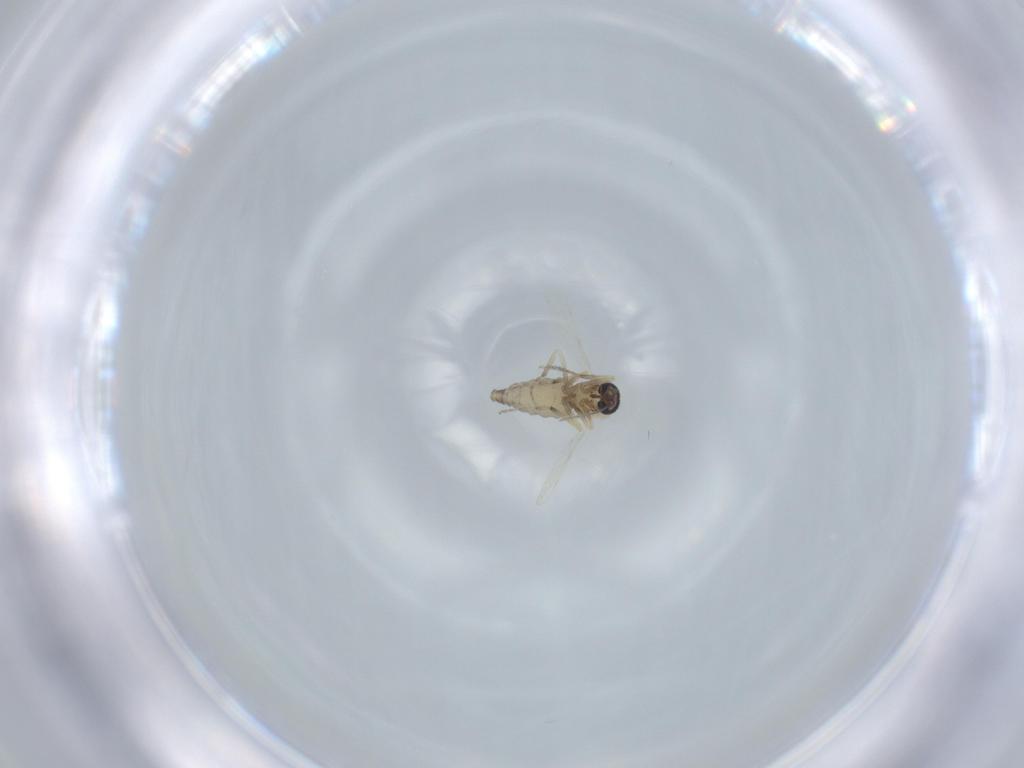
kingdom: Animalia
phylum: Arthropoda
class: Insecta
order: Diptera
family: Ceratopogonidae
